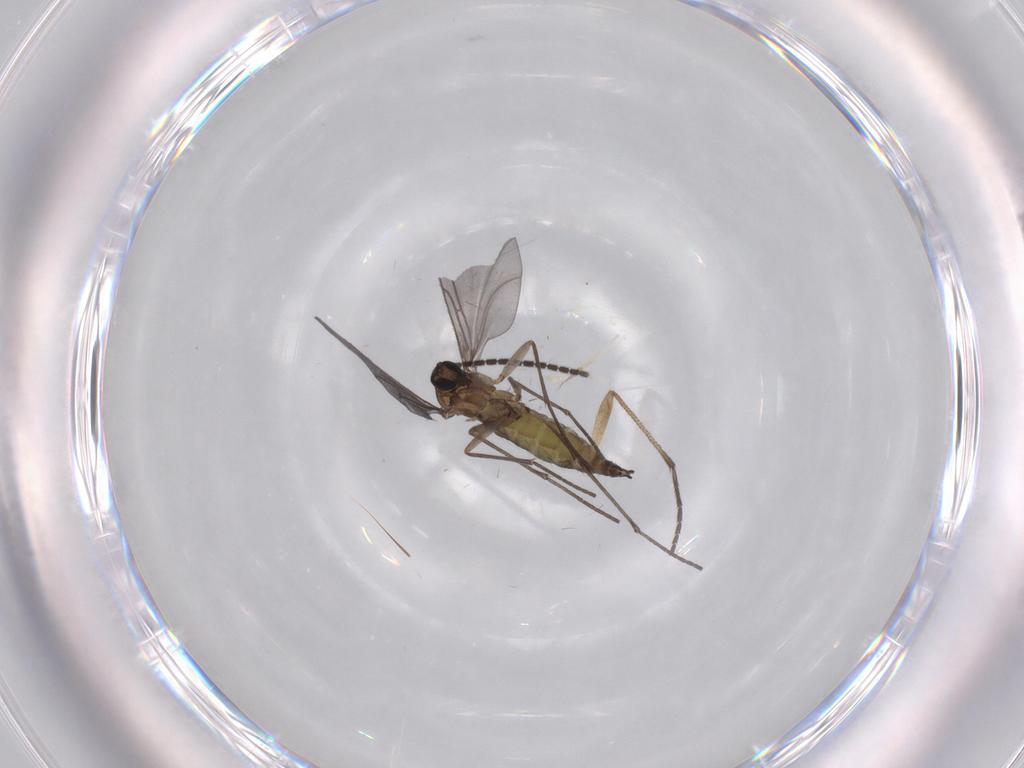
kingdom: Animalia
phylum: Arthropoda
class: Insecta
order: Diptera
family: Sciaridae
